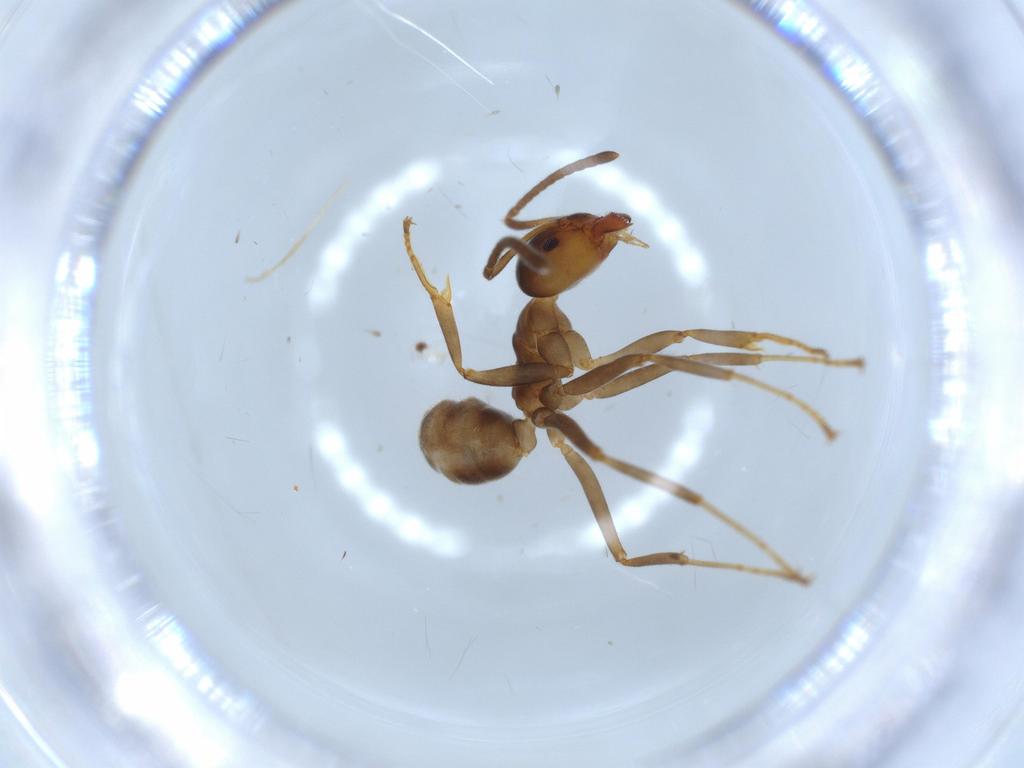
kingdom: Animalia
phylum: Arthropoda
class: Insecta
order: Hymenoptera
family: Formicidae
